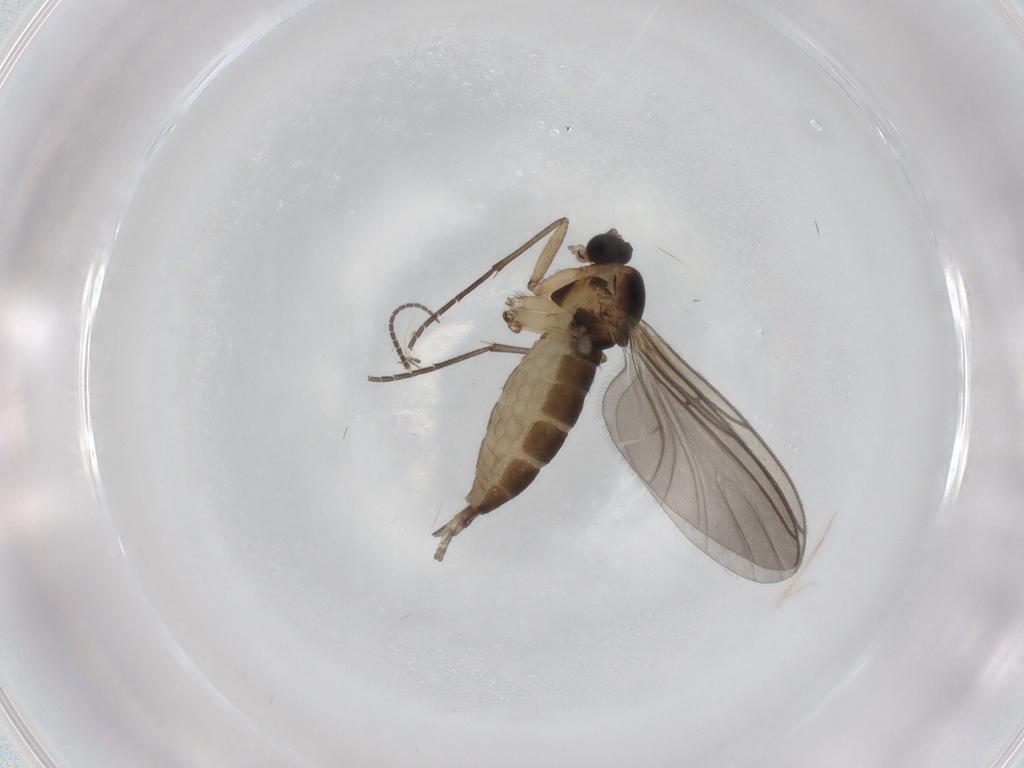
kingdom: Animalia
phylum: Arthropoda
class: Insecta
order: Diptera
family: Sciaridae
